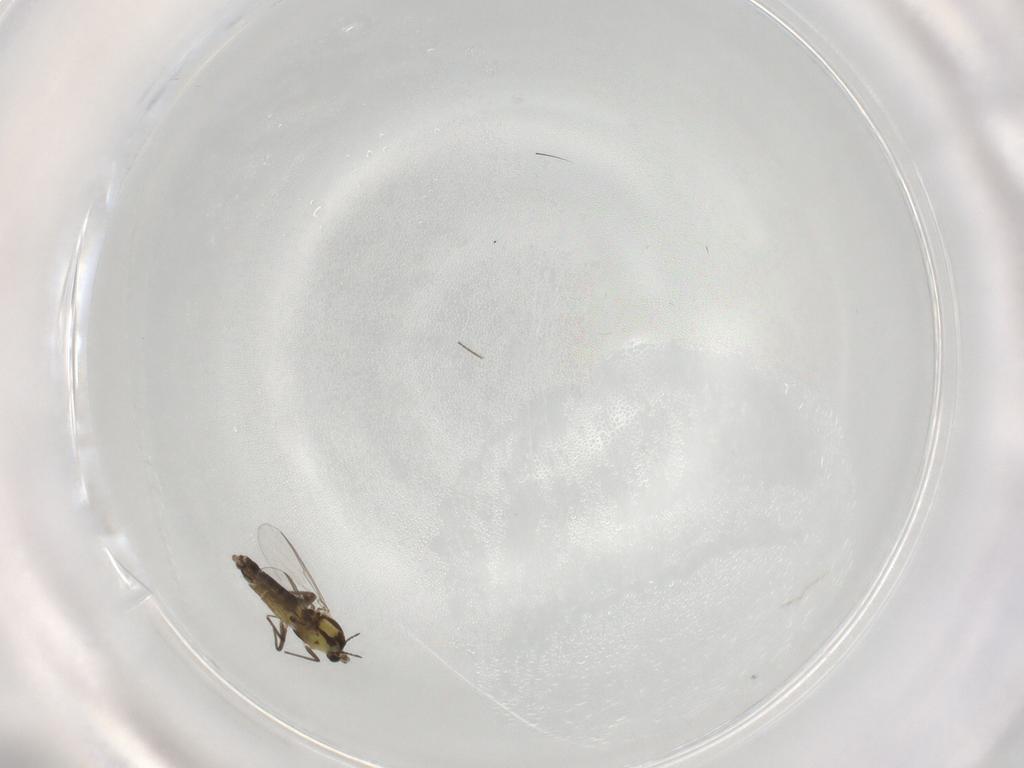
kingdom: Animalia
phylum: Arthropoda
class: Insecta
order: Diptera
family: Chironomidae
